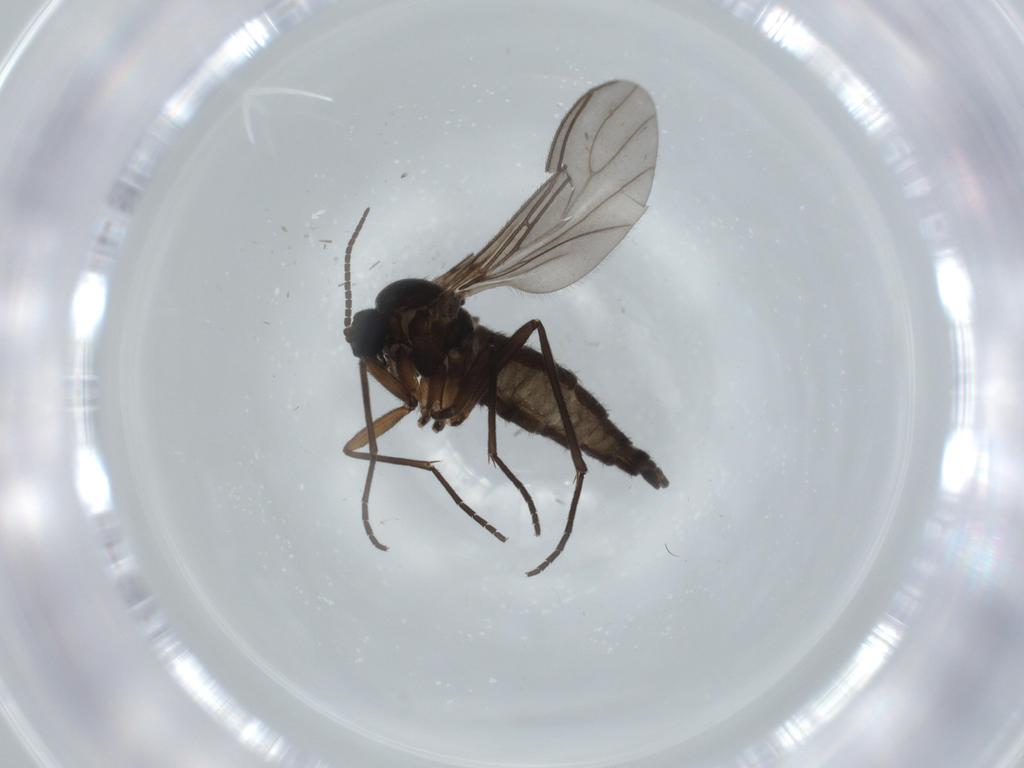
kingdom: Animalia
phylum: Arthropoda
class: Insecta
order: Diptera
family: Sciaridae
